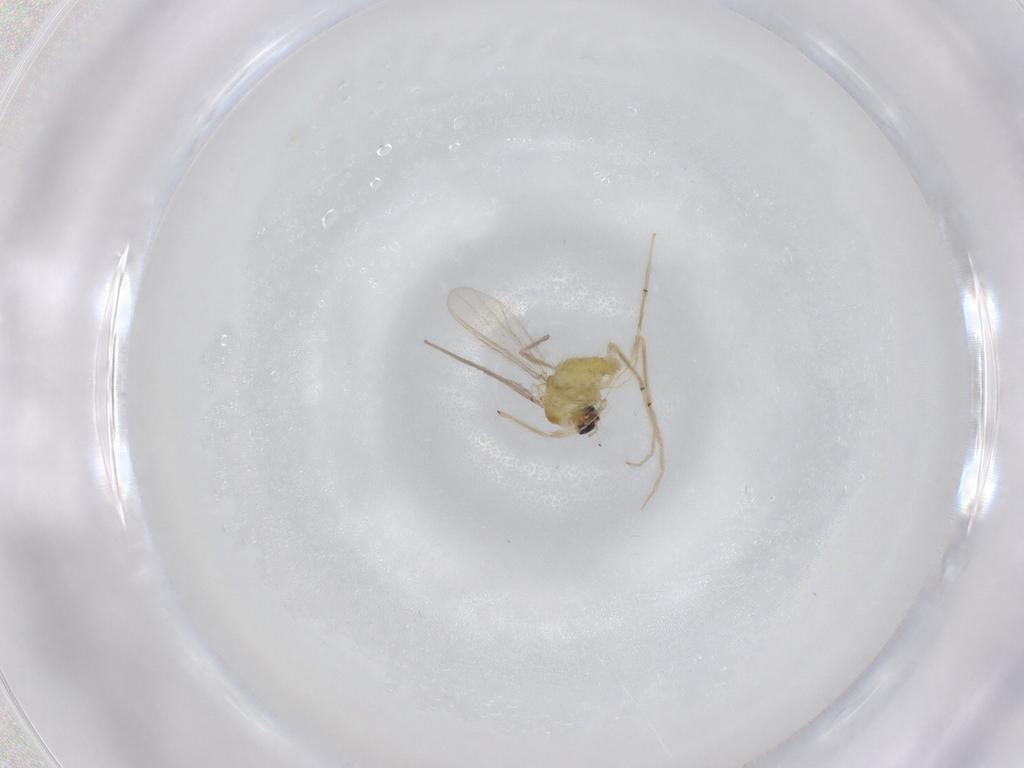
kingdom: Animalia
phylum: Arthropoda
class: Insecta
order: Diptera
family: Chironomidae
